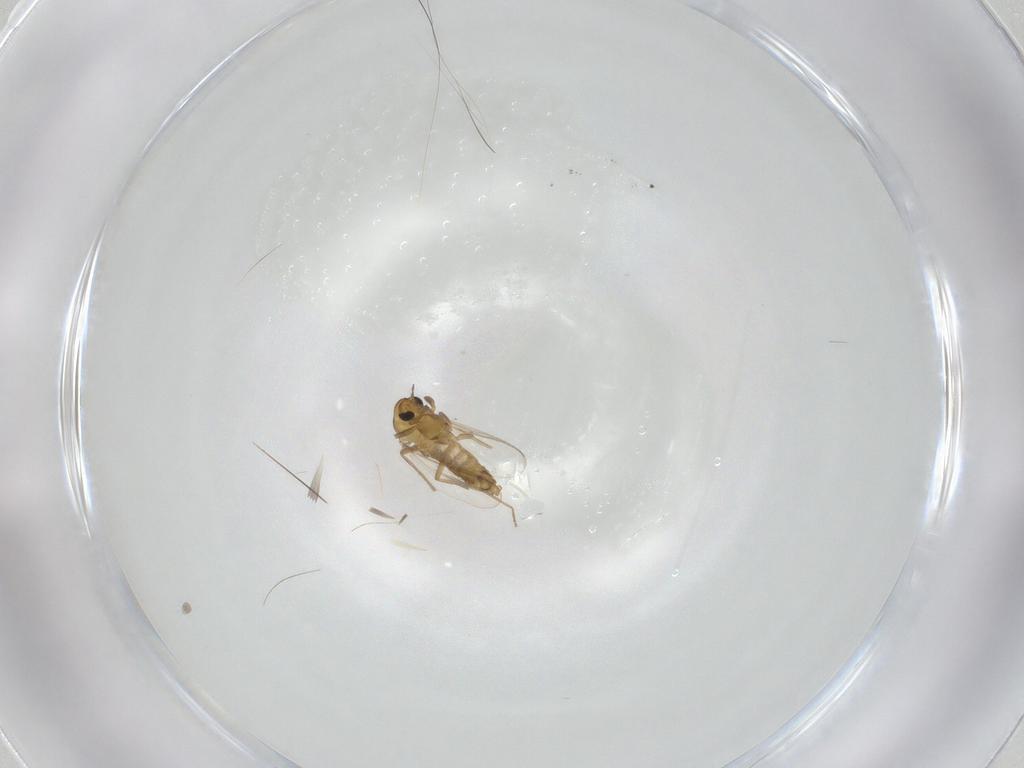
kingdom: Animalia
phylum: Arthropoda
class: Insecta
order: Diptera
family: Chironomidae
